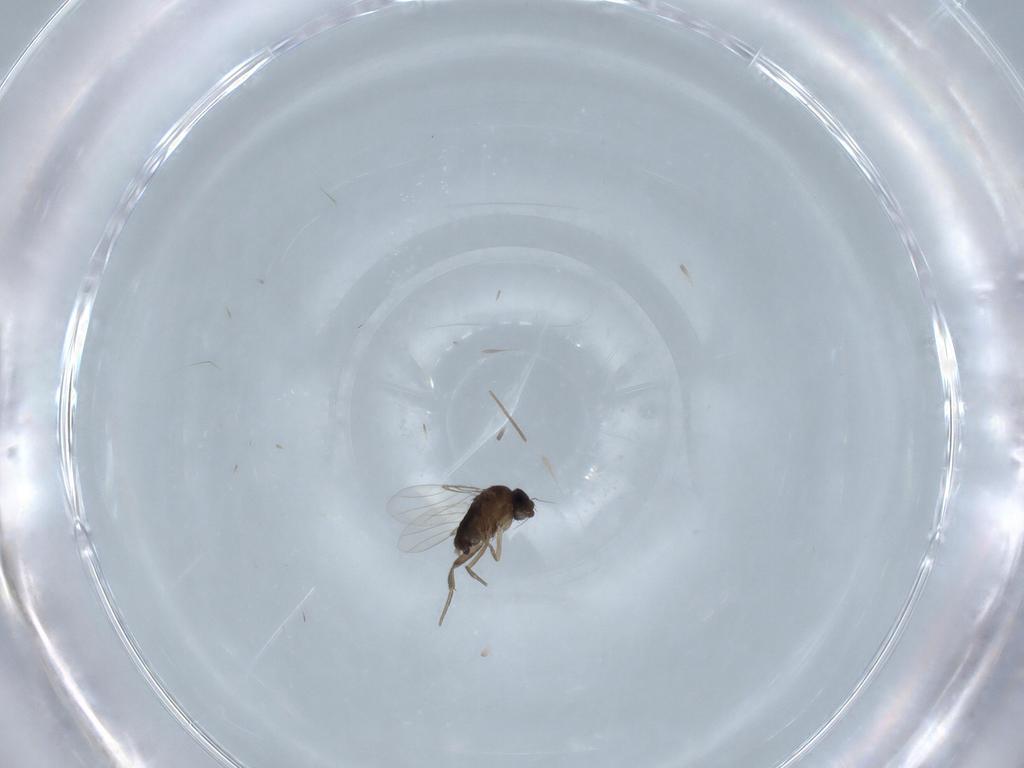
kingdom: Animalia
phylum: Arthropoda
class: Insecta
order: Diptera
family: Phoridae
